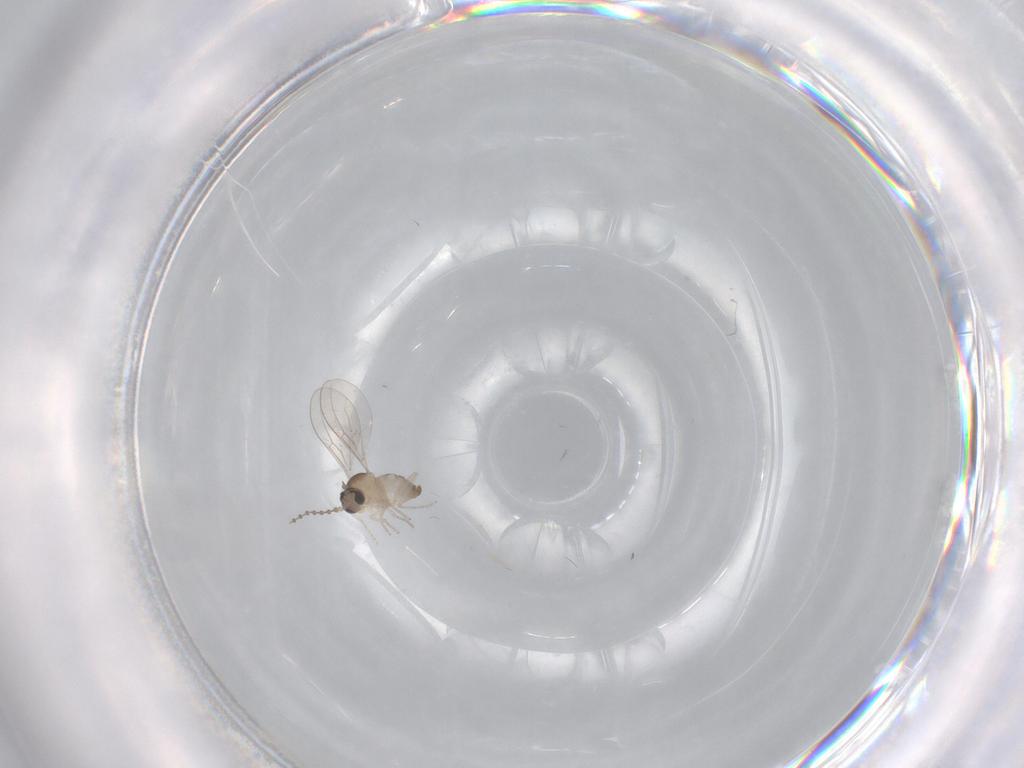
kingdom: Animalia
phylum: Arthropoda
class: Insecta
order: Diptera
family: Cecidomyiidae
